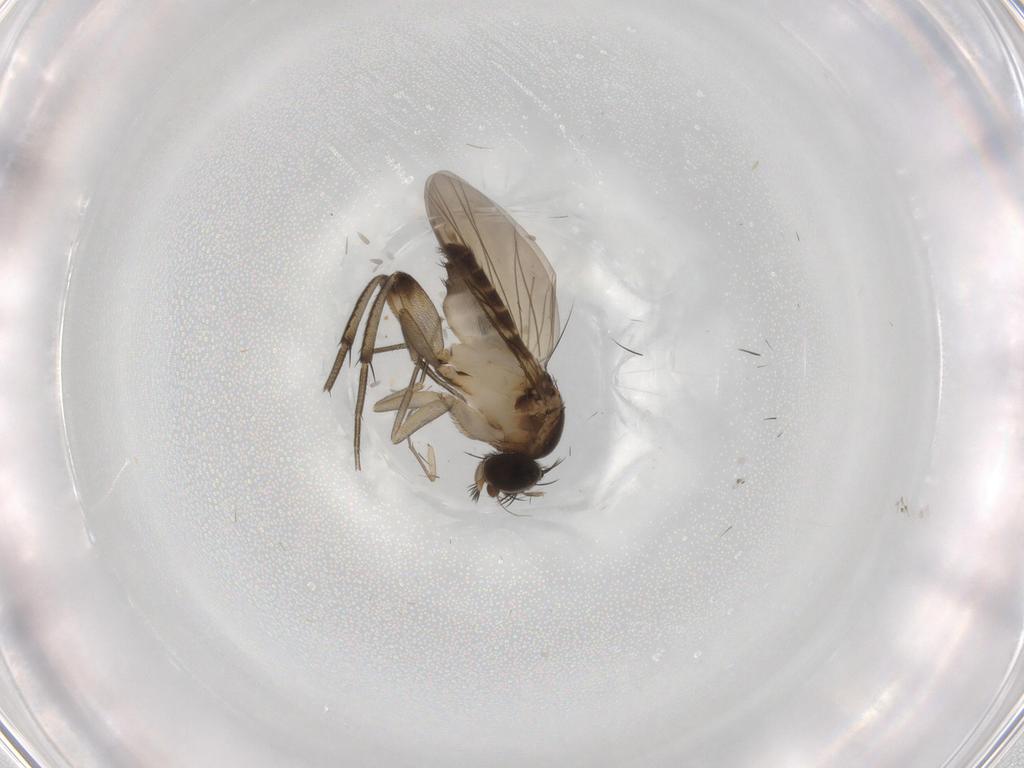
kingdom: Animalia
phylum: Arthropoda
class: Insecta
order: Diptera
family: Phoridae
